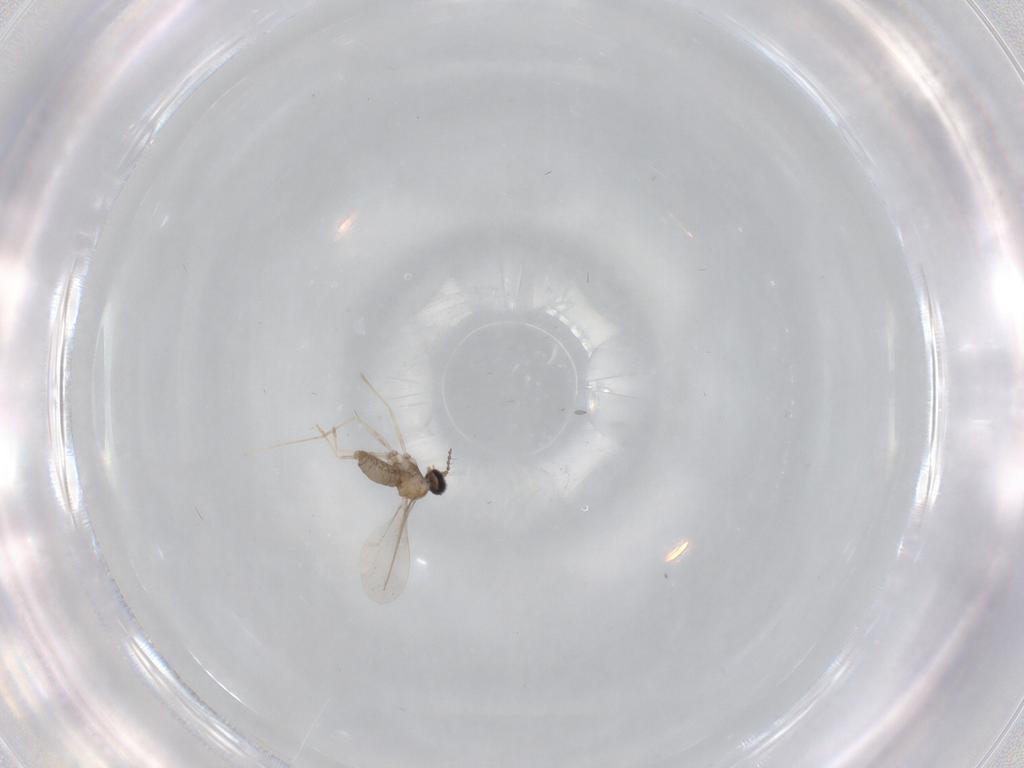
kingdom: Animalia
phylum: Arthropoda
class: Insecta
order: Diptera
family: Cecidomyiidae
